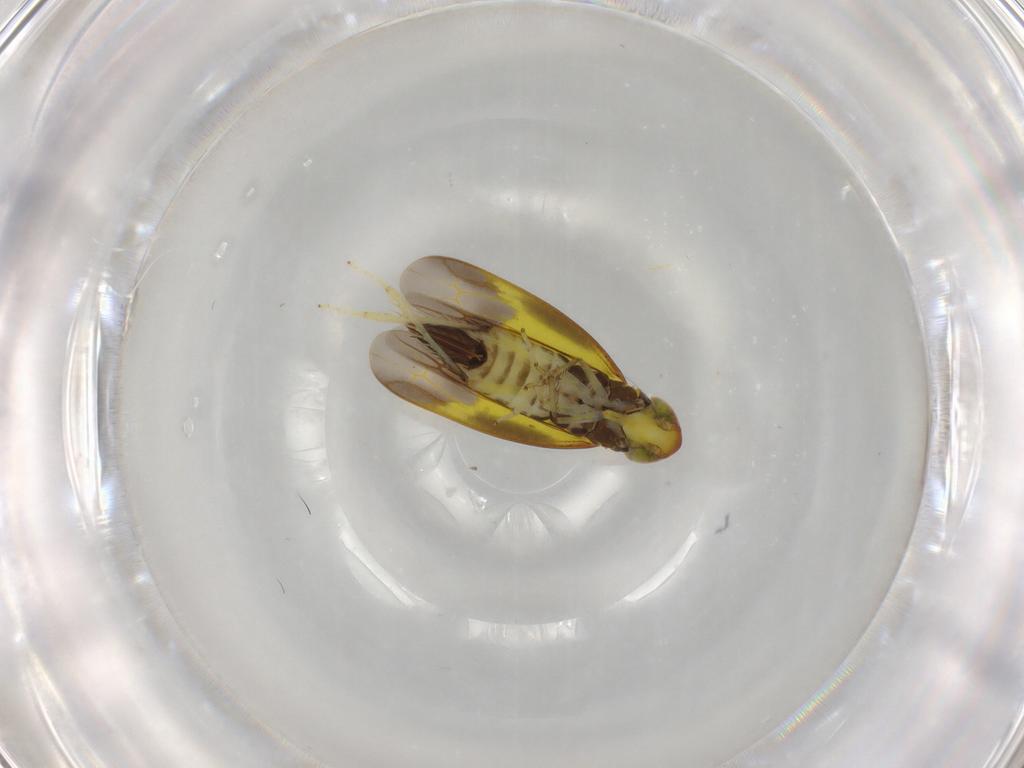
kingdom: Animalia
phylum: Arthropoda
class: Insecta
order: Hemiptera
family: Cicadellidae
